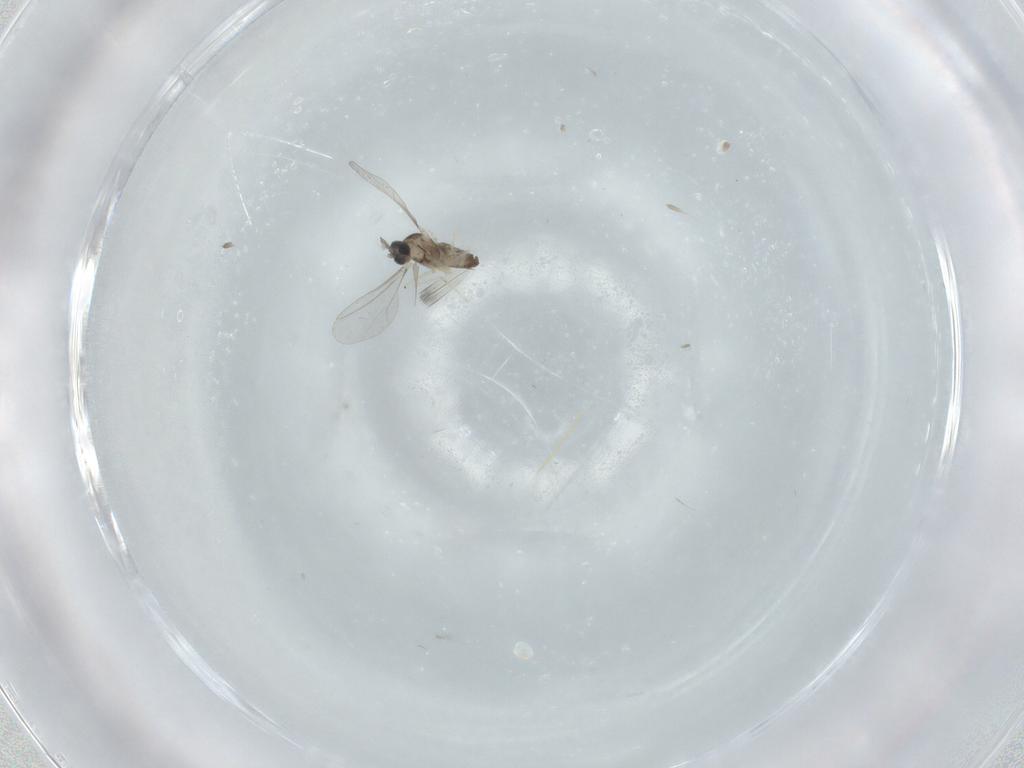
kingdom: Animalia
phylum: Arthropoda
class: Insecta
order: Diptera
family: Cecidomyiidae
